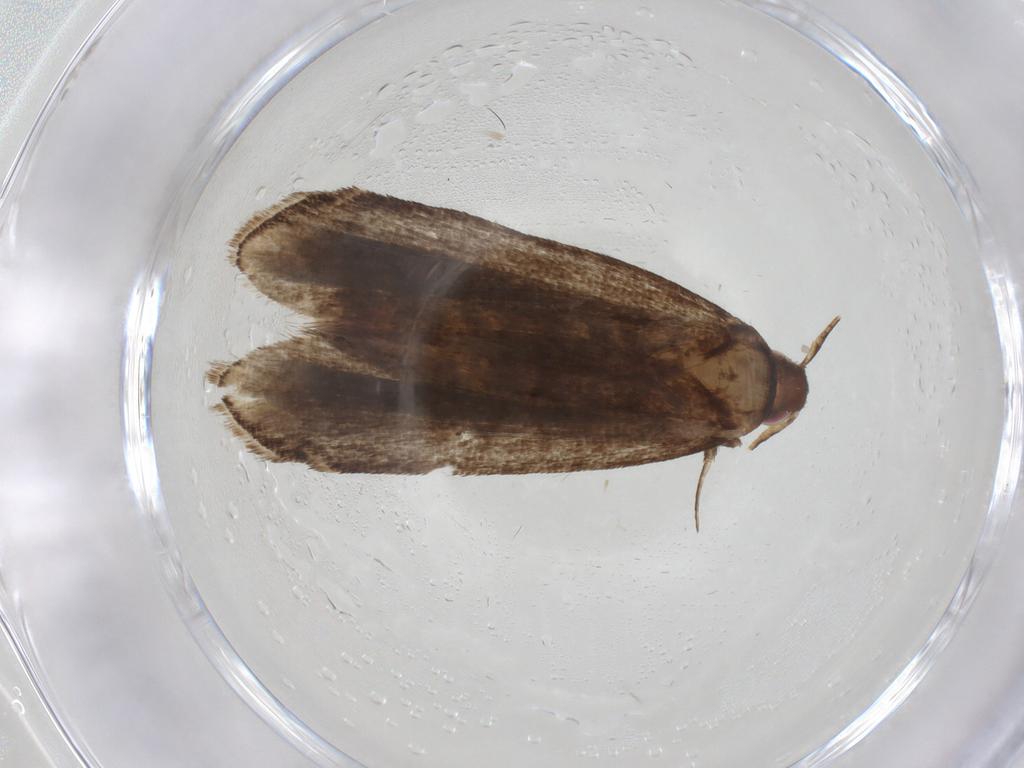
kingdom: Animalia
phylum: Arthropoda
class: Insecta
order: Lepidoptera
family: Gelechiidae
